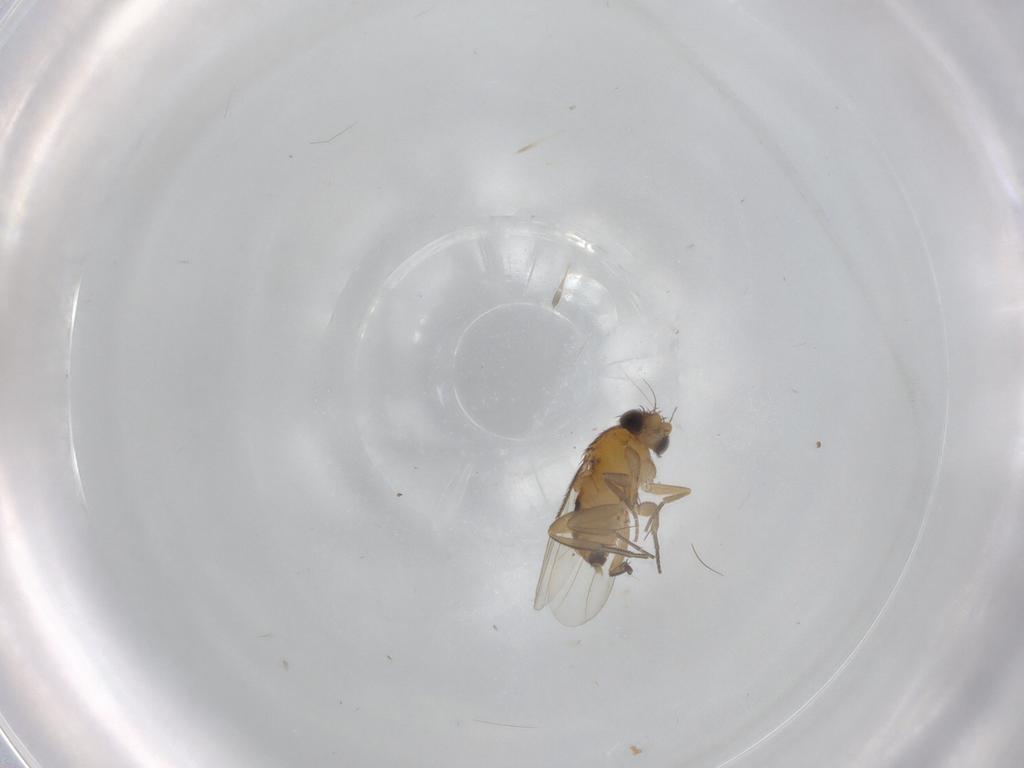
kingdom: Animalia
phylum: Arthropoda
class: Insecta
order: Diptera
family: Phoridae
